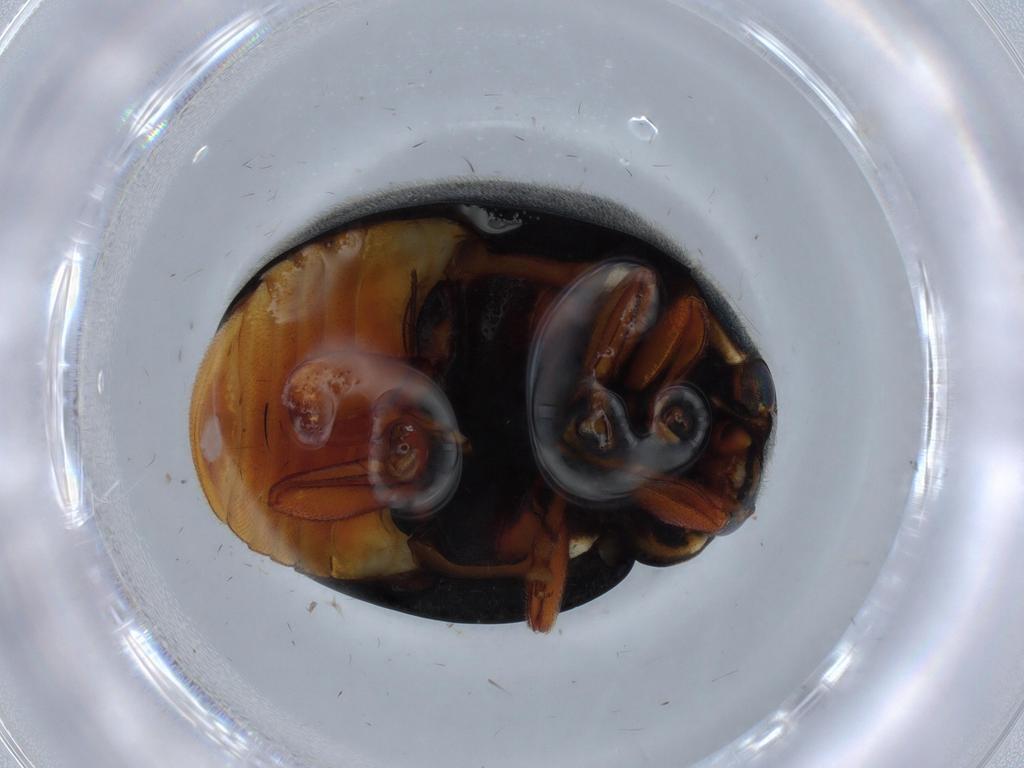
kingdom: Animalia
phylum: Arthropoda
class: Insecta
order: Coleoptera
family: Coccinellidae
